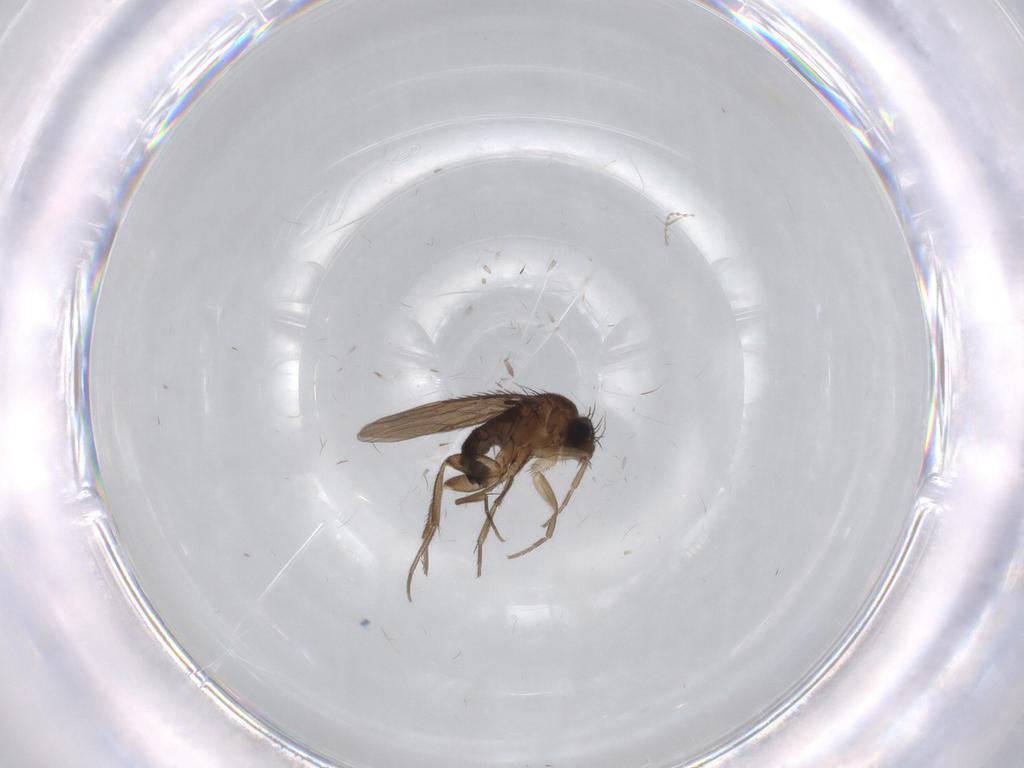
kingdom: Animalia
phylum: Arthropoda
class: Insecta
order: Diptera
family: Phoridae
